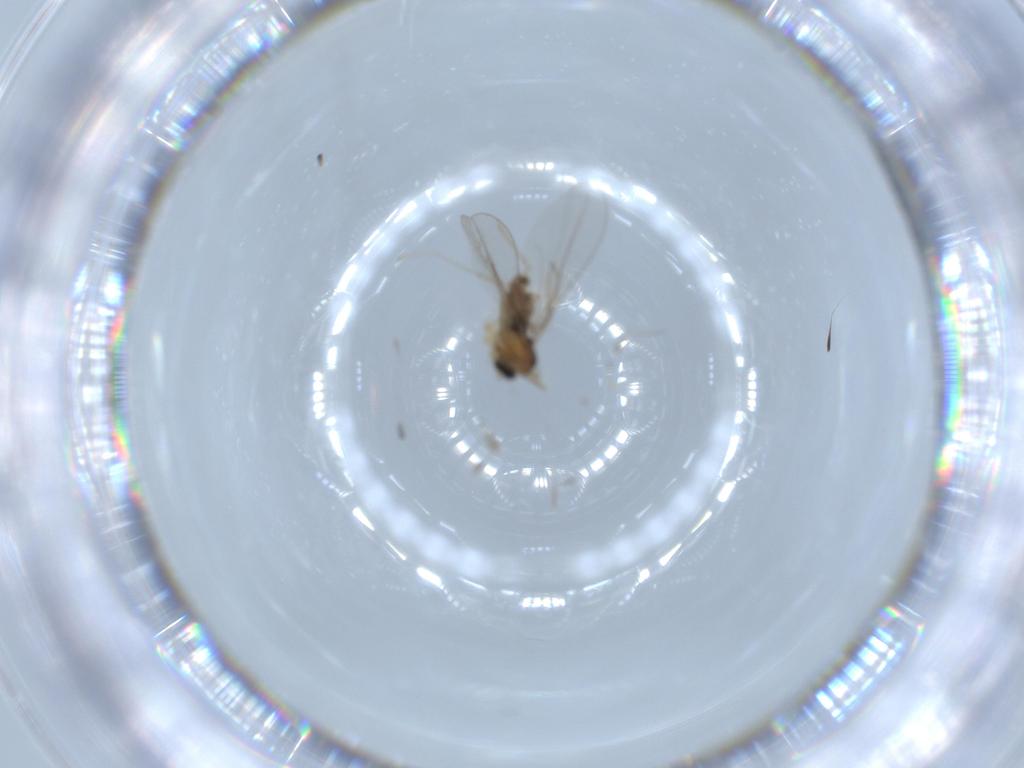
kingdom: Animalia
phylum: Arthropoda
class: Insecta
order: Diptera
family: Cecidomyiidae
